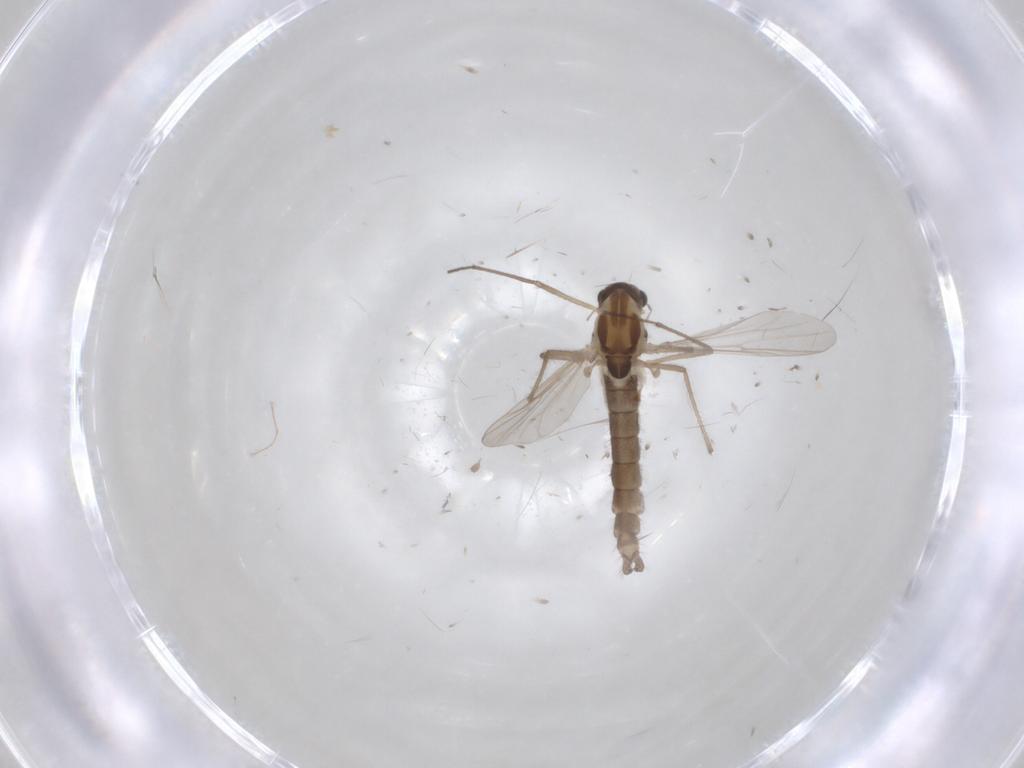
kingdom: Animalia
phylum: Arthropoda
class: Insecta
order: Diptera
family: Chironomidae
